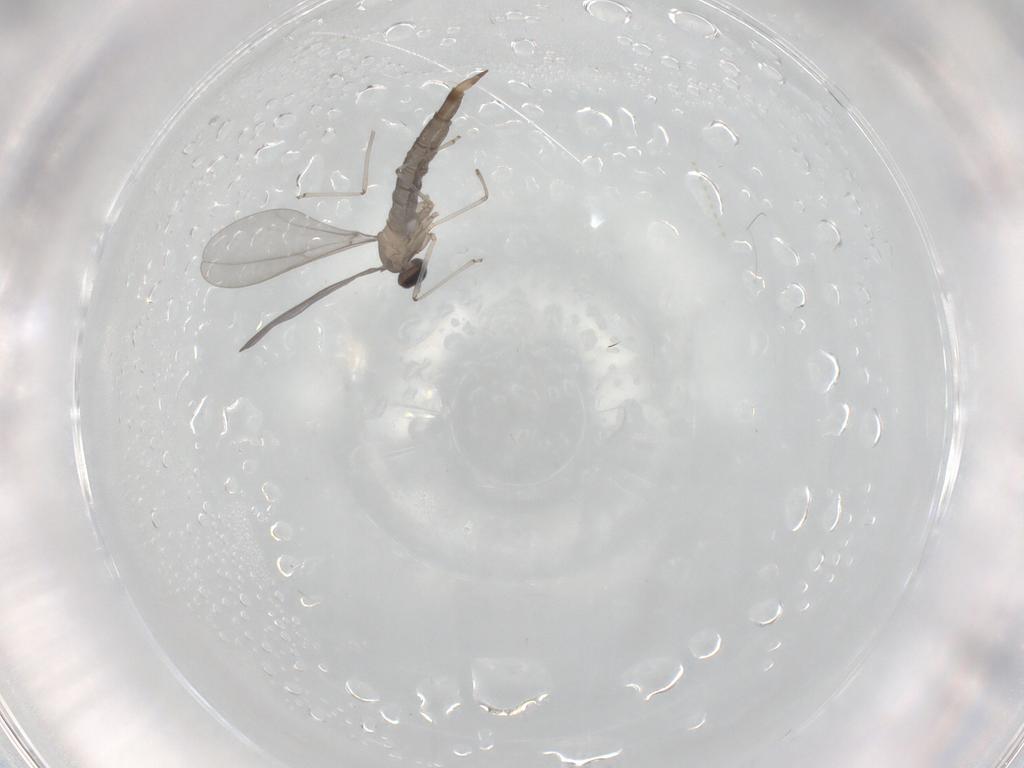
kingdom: Animalia
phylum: Arthropoda
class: Insecta
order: Diptera
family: Cecidomyiidae
